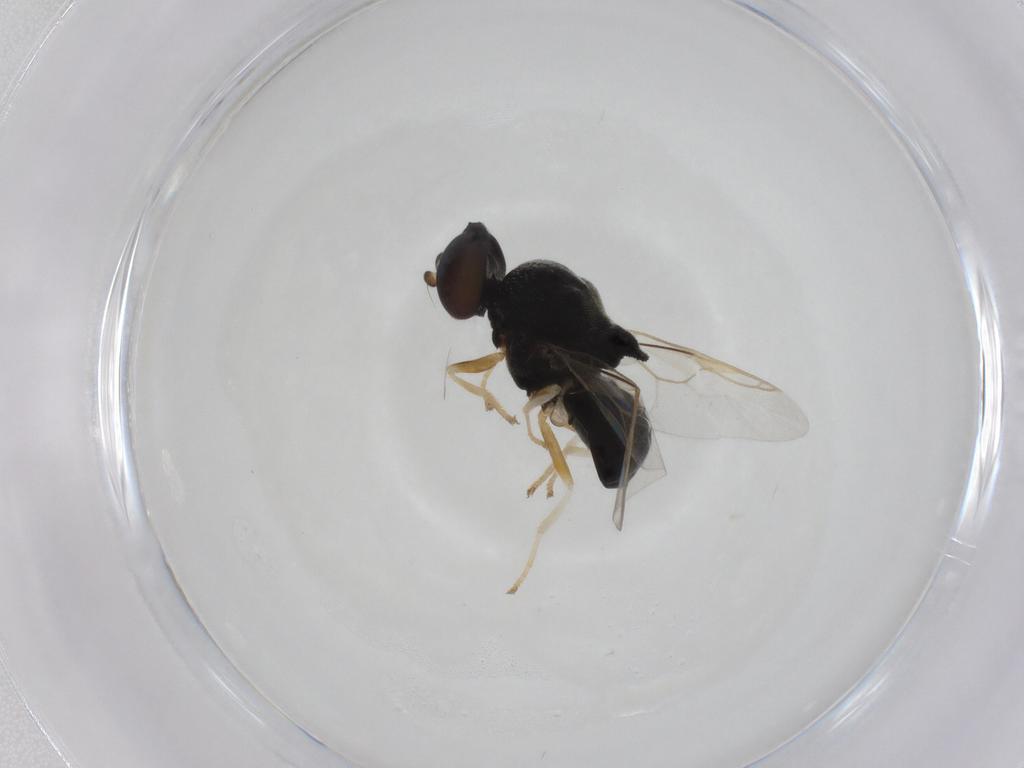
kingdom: Animalia
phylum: Arthropoda
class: Insecta
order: Diptera
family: Stratiomyidae
